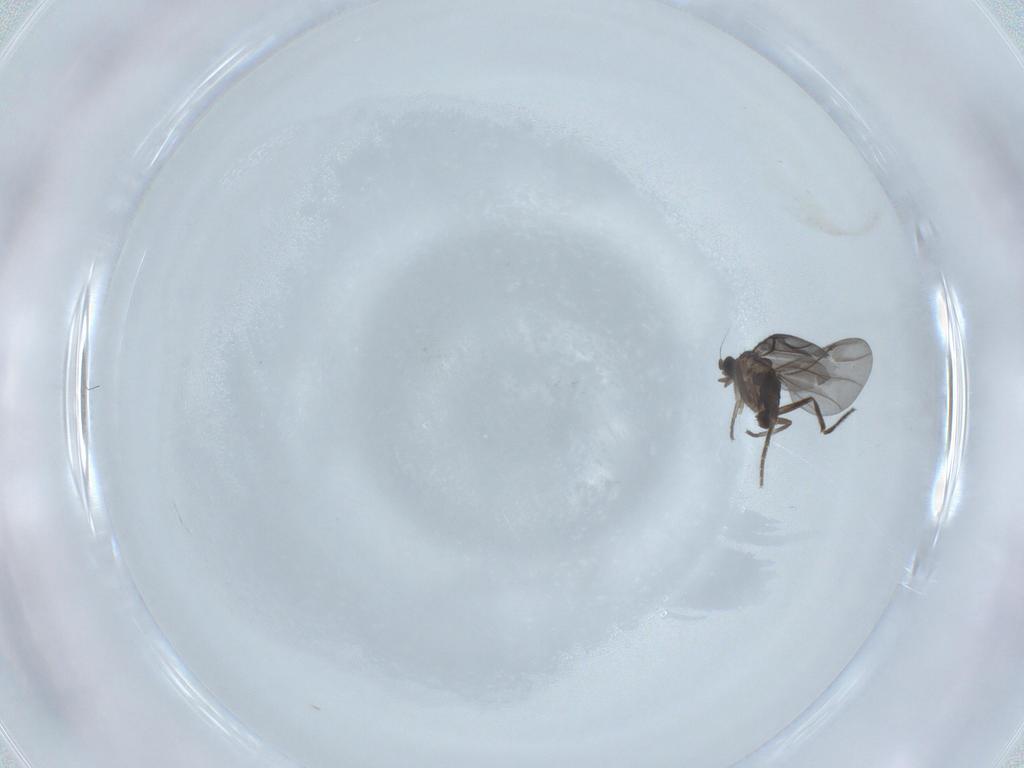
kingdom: Animalia
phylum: Arthropoda
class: Insecta
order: Diptera
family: Phoridae
